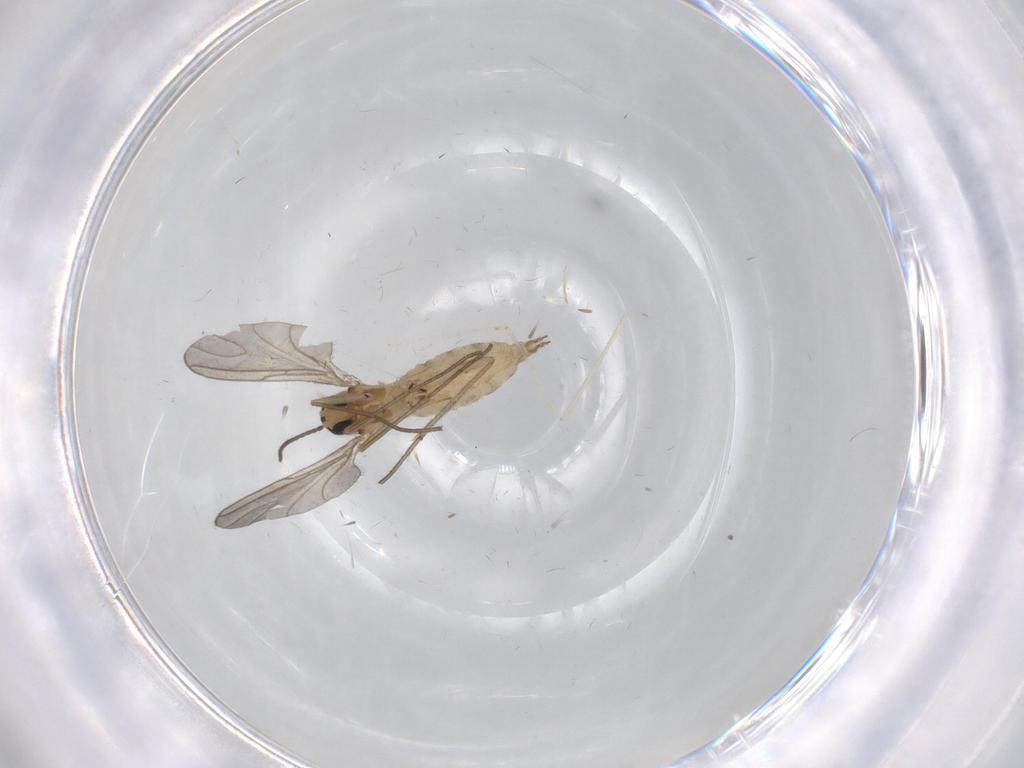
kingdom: Animalia
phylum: Arthropoda
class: Insecta
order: Diptera
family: Sciaridae
